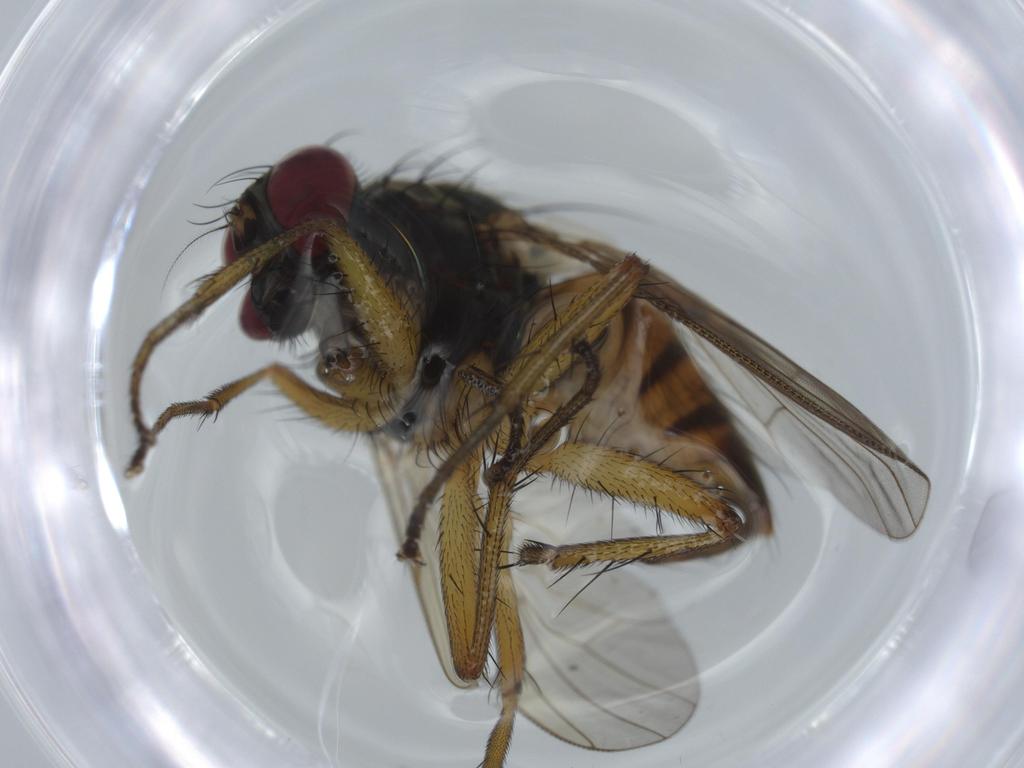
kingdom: Animalia
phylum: Arthropoda
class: Insecta
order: Diptera
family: Muscidae
